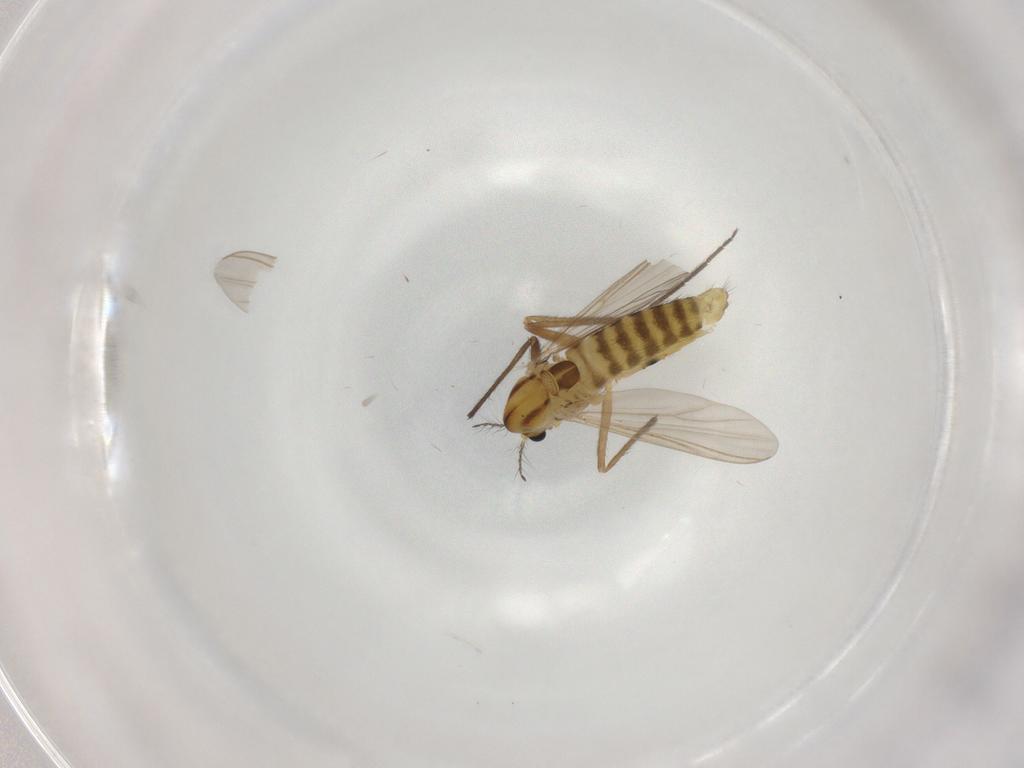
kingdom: Animalia
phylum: Arthropoda
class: Insecta
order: Diptera
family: Chironomidae
